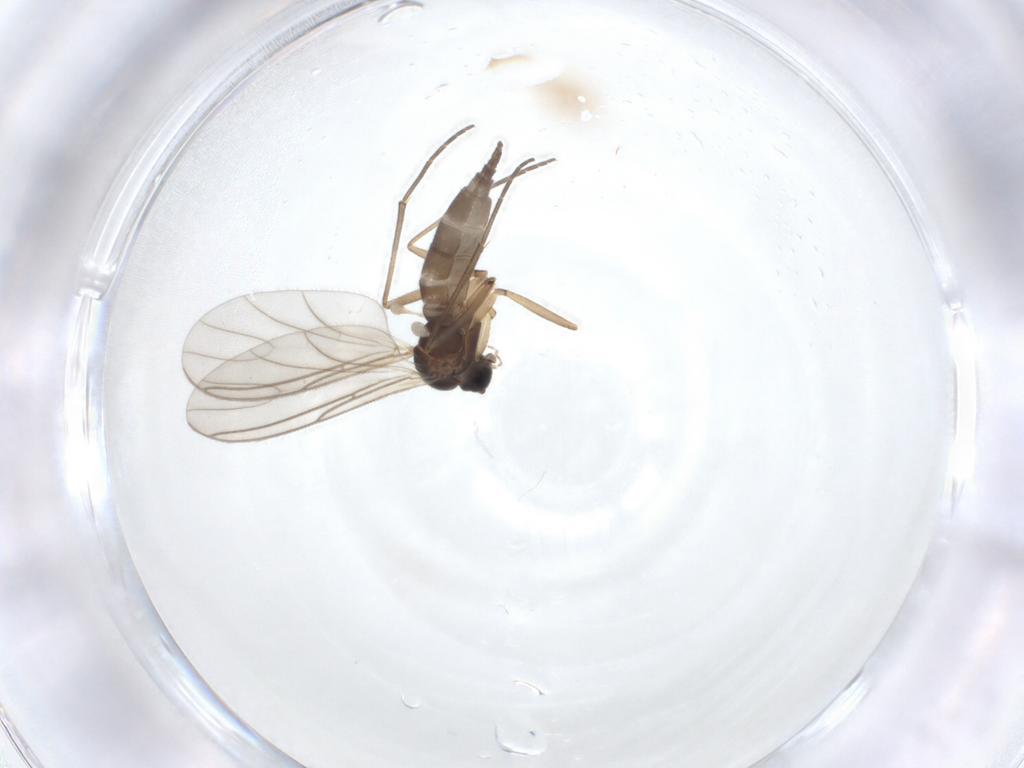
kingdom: Animalia
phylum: Arthropoda
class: Insecta
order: Diptera
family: Sciaridae
